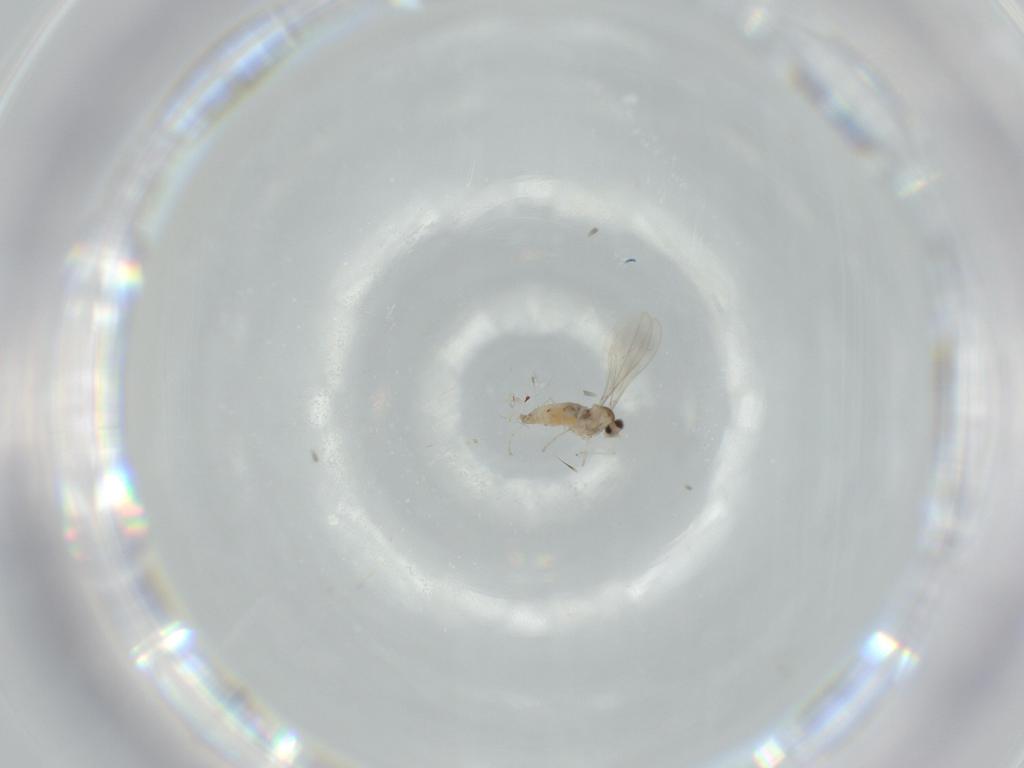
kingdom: Animalia
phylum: Arthropoda
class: Insecta
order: Diptera
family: Cecidomyiidae
